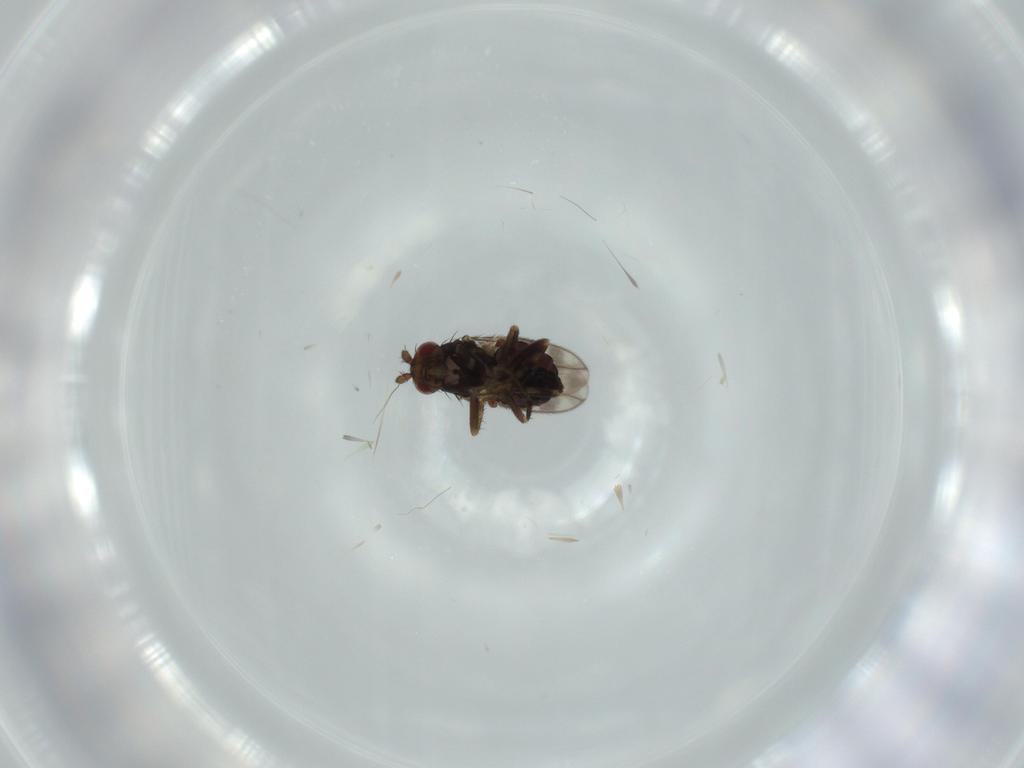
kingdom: Animalia
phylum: Arthropoda
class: Insecta
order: Diptera
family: Sphaeroceridae
